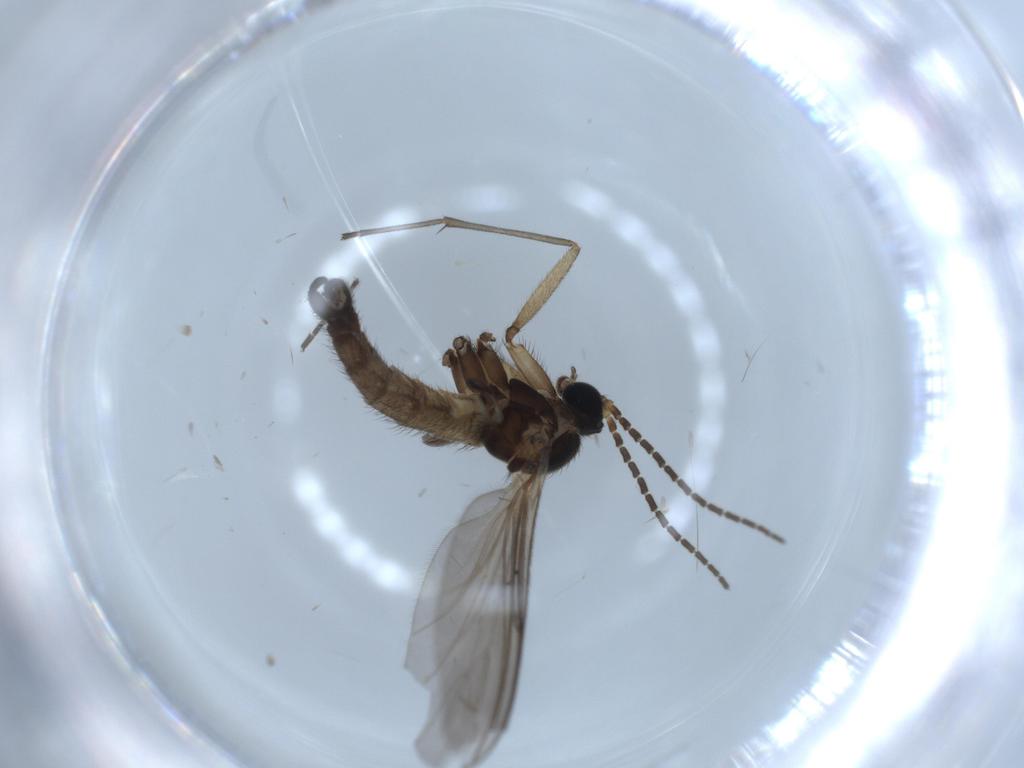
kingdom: Animalia
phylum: Arthropoda
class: Insecta
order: Diptera
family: Sciaridae
